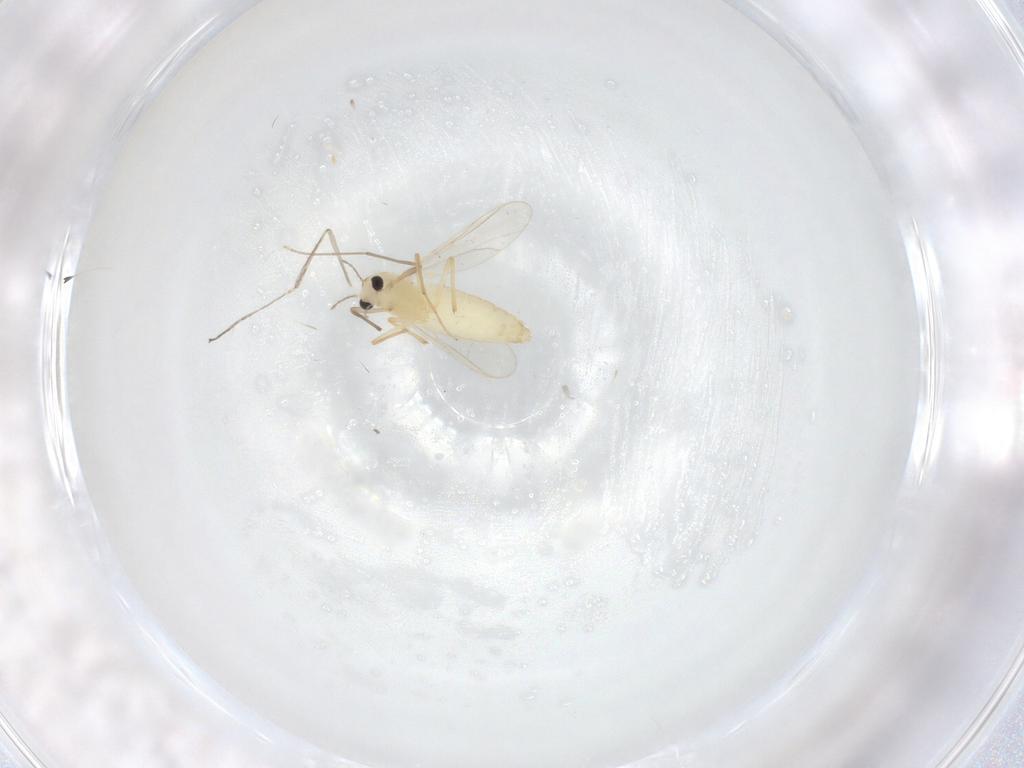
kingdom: Animalia
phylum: Arthropoda
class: Insecta
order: Diptera
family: Chironomidae
